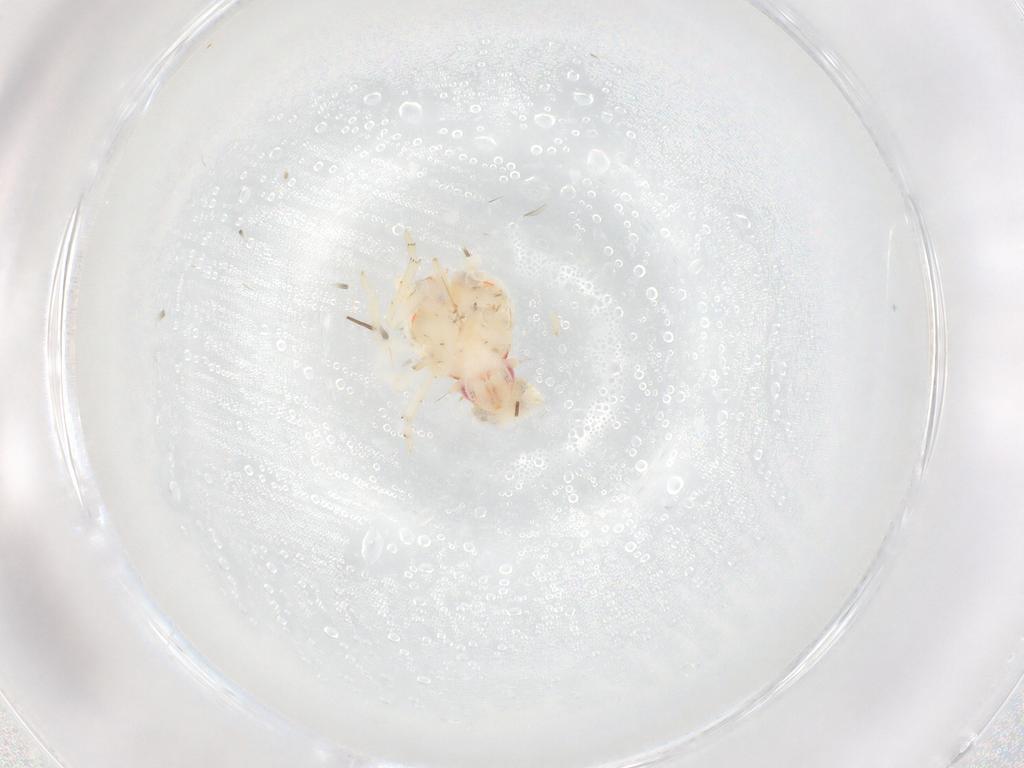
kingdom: Animalia
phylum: Arthropoda
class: Insecta
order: Hemiptera
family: Flatidae
